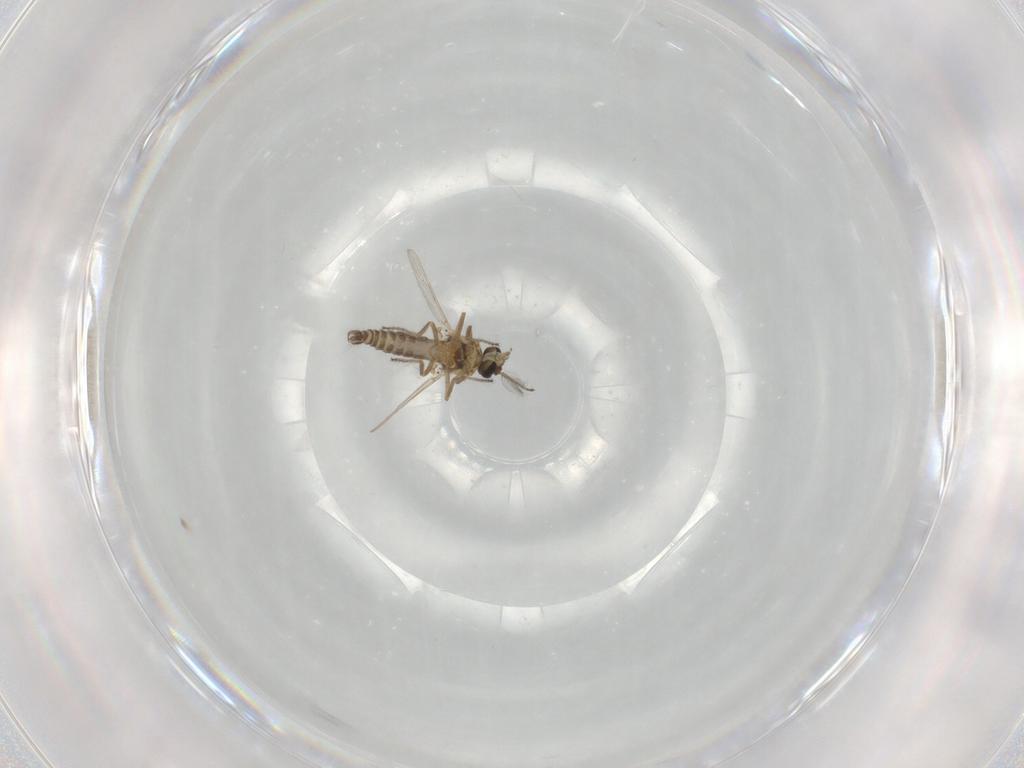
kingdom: Animalia
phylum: Arthropoda
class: Insecta
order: Diptera
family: Ceratopogonidae
